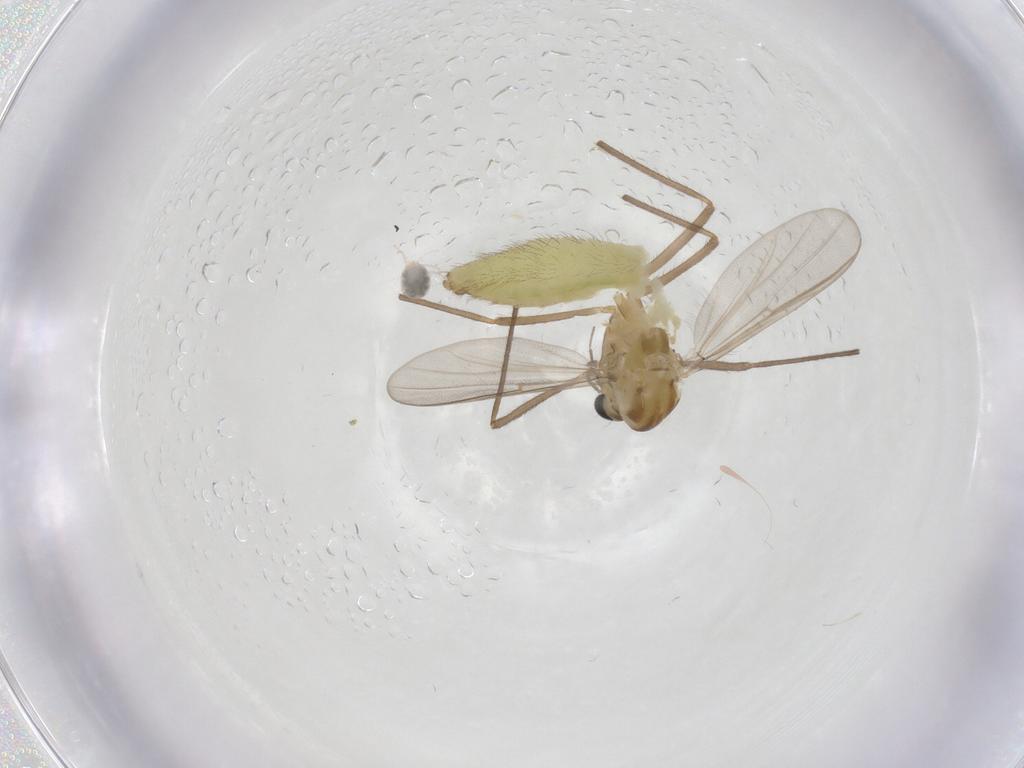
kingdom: Animalia
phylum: Arthropoda
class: Insecta
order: Diptera
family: Chironomidae
